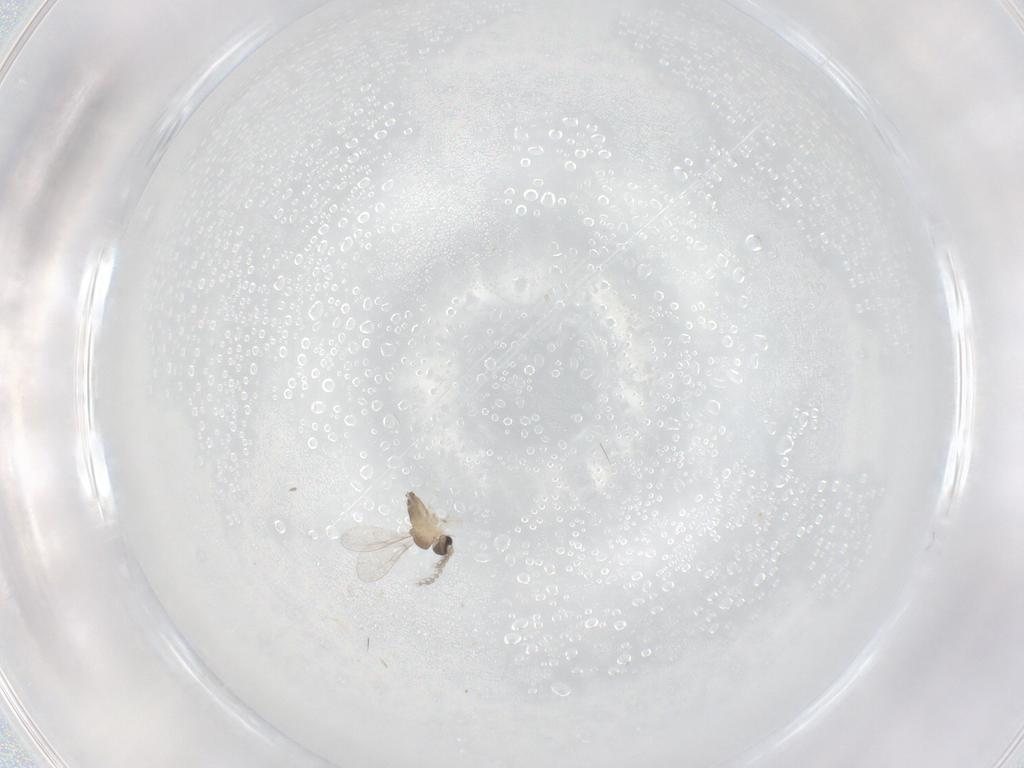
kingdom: Animalia
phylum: Arthropoda
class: Insecta
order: Diptera
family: Cecidomyiidae
